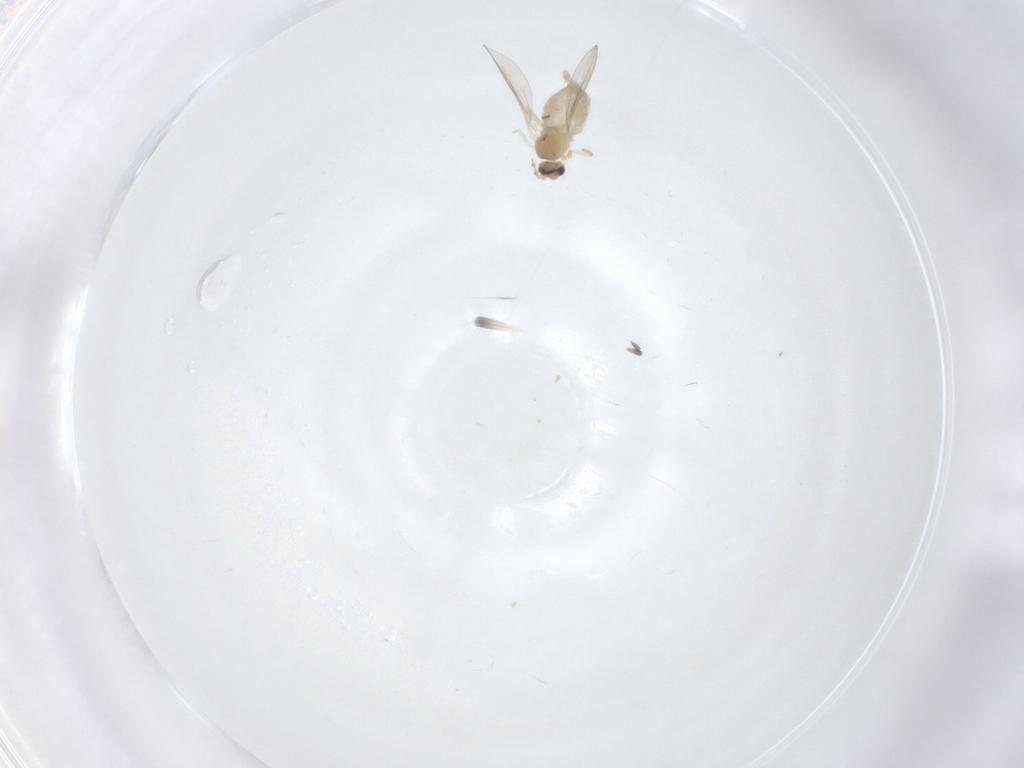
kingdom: Animalia
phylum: Arthropoda
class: Insecta
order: Diptera
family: Cecidomyiidae
